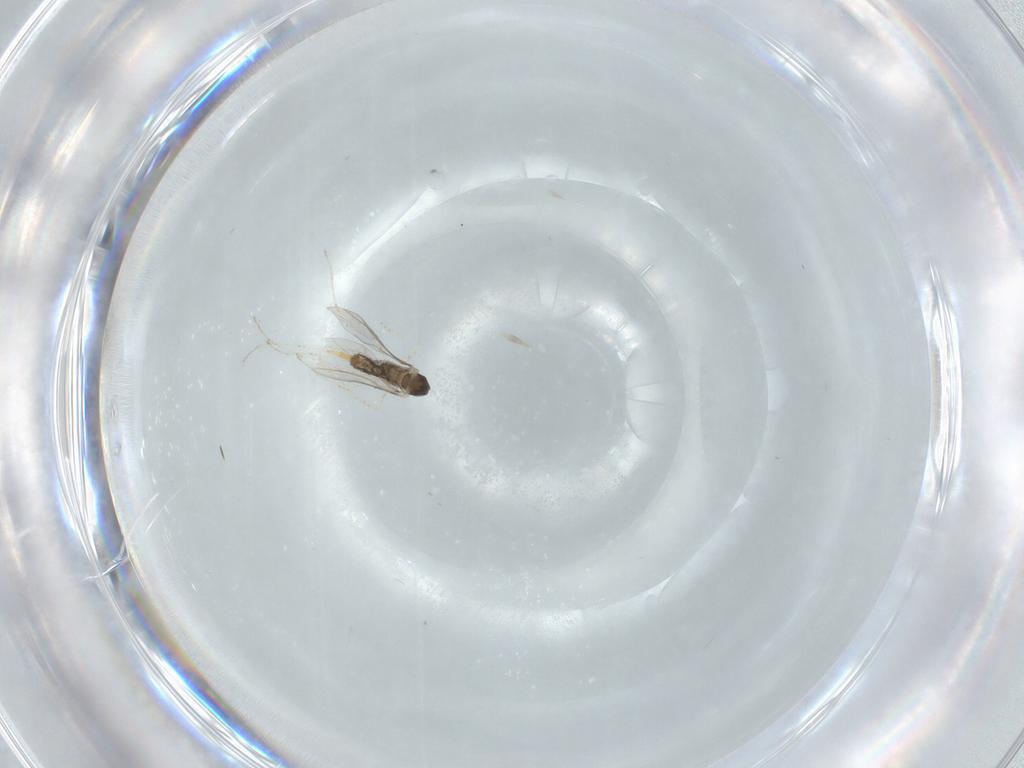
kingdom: Animalia
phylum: Arthropoda
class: Insecta
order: Diptera
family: Cecidomyiidae
